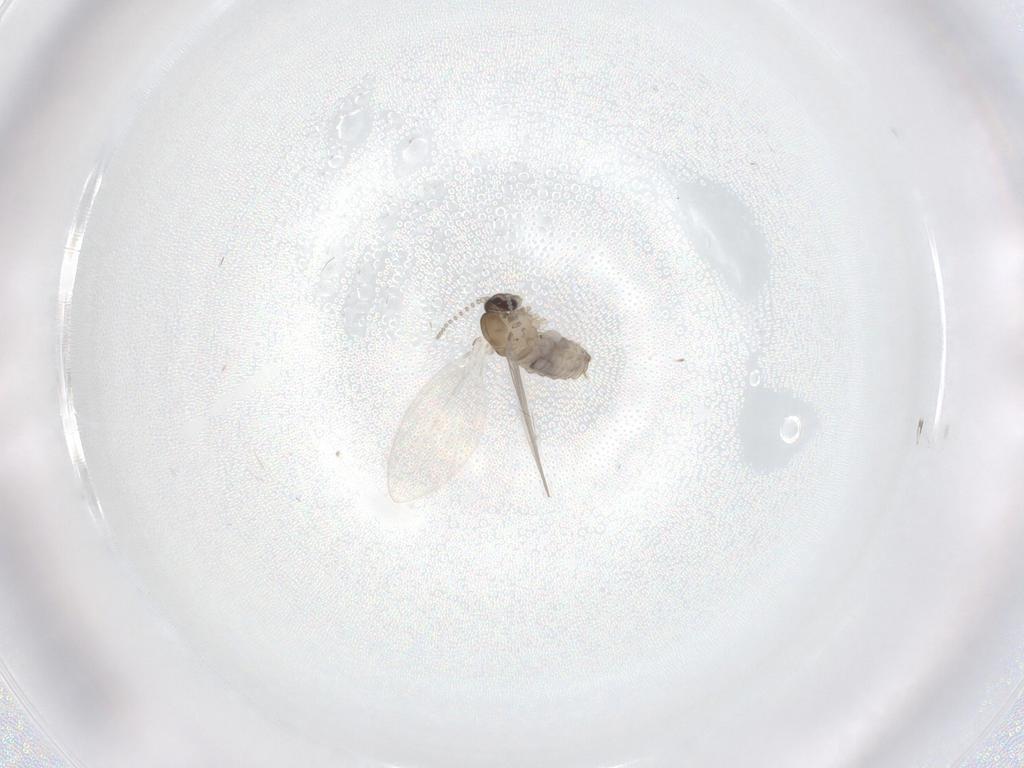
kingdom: Animalia
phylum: Arthropoda
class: Insecta
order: Diptera
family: Psychodidae
